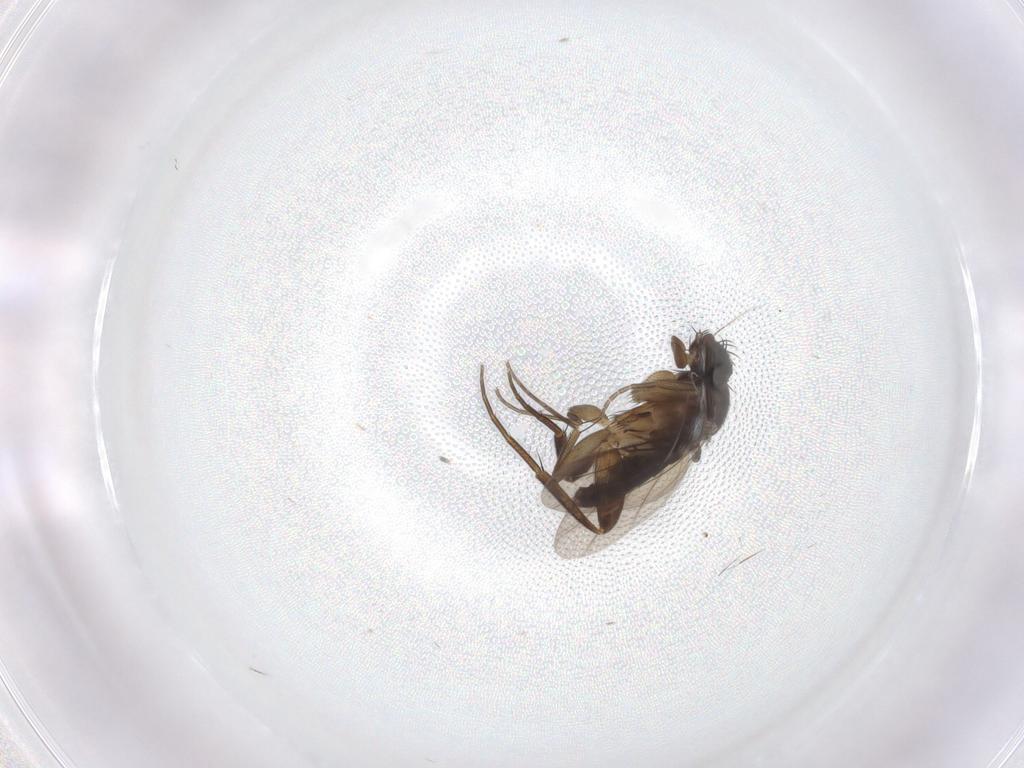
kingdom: Animalia
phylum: Arthropoda
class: Insecta
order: Diptera
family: Phoridae
